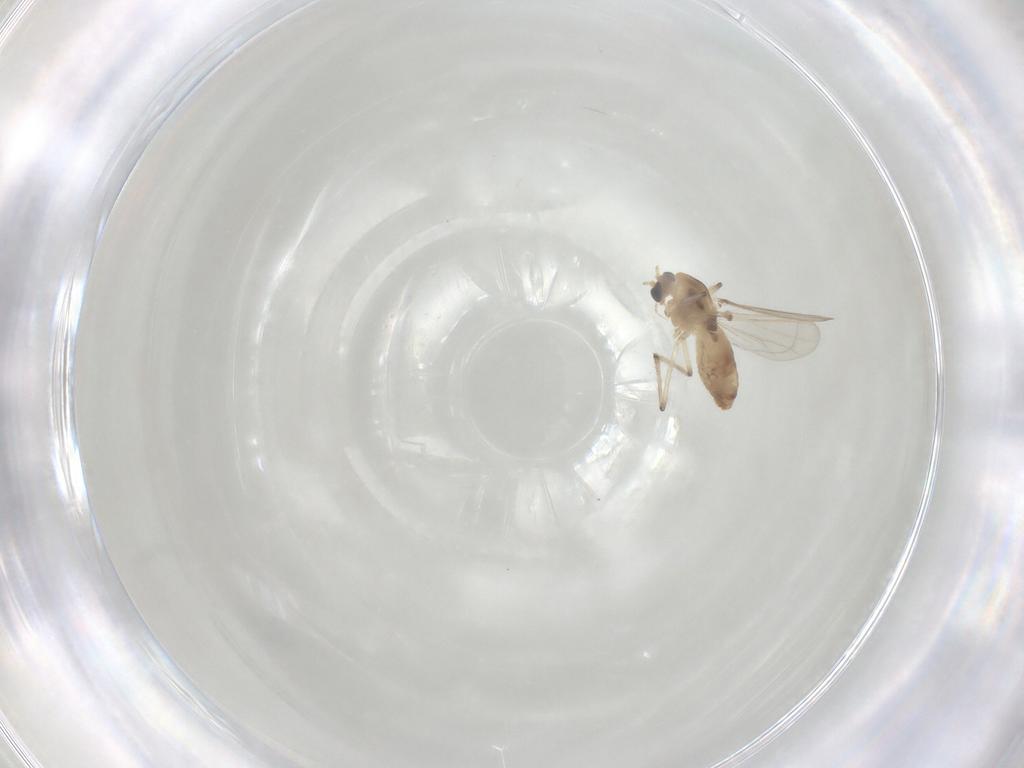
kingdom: Animalia
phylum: Arthropoda
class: Insecta
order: Diptera
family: Chironomidae
